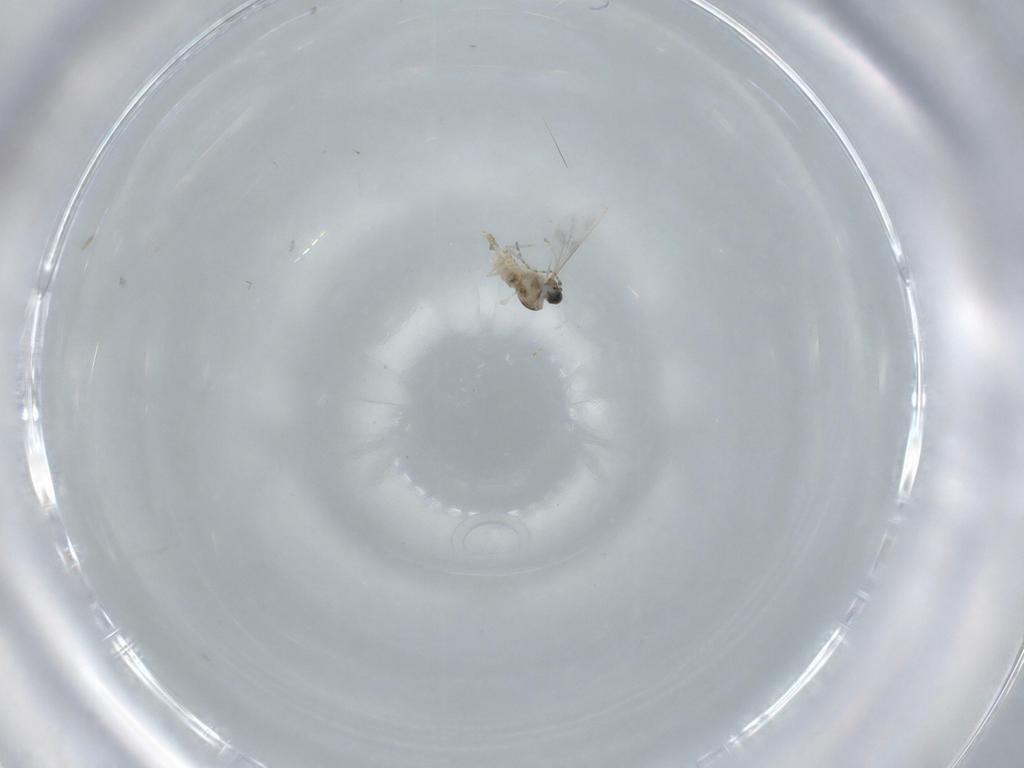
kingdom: Animalia
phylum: Arthropoda
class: Insecta
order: Diptera
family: Cecidomyiidae
